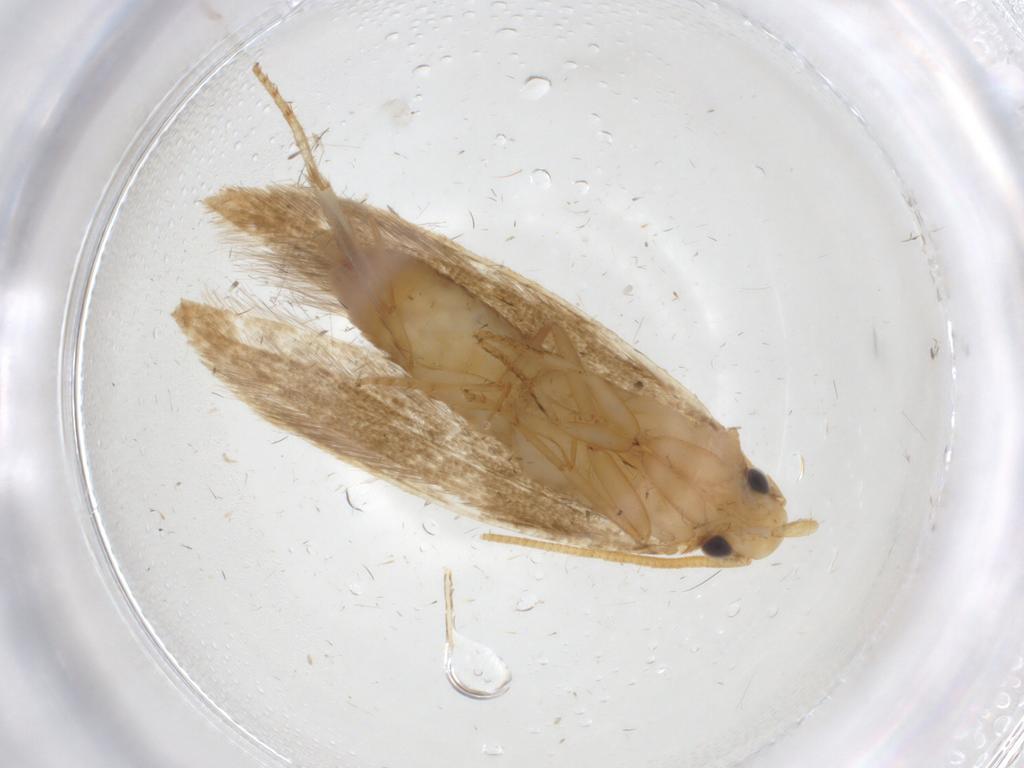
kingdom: Animalia
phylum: Arthropoda
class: Insecta
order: Lepidoptera
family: Tineidae
